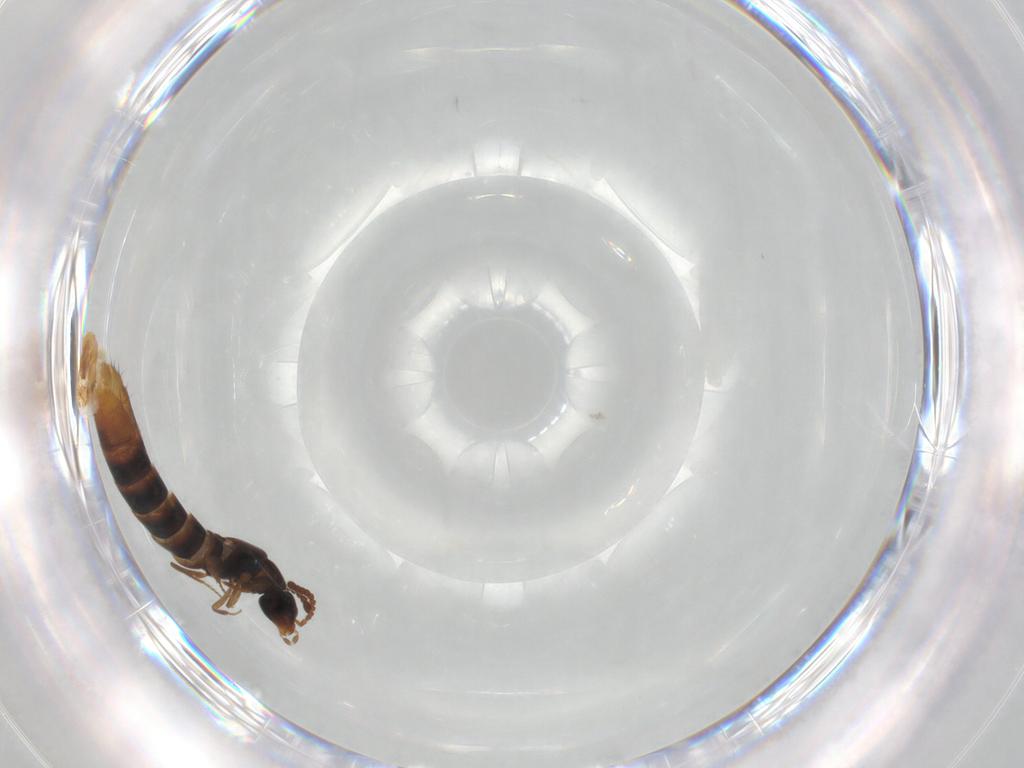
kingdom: Animalia
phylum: Arthropoda
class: Insecta
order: Coleoptera
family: Staphylinidae
